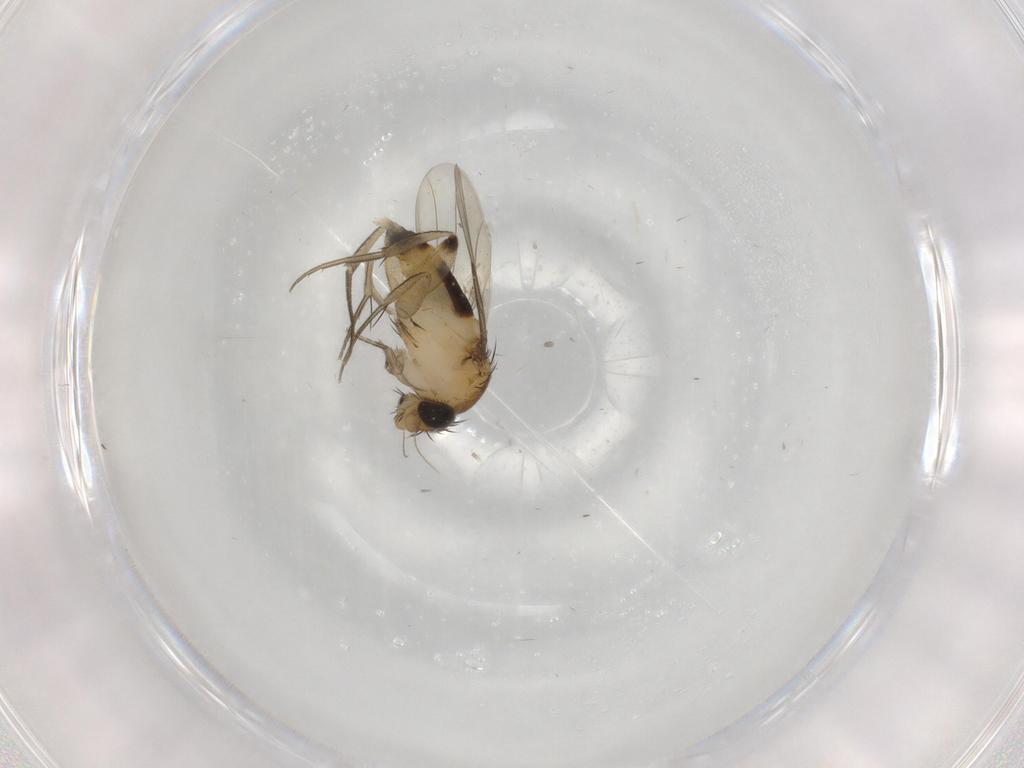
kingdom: Animalia
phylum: Arthropoda
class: Insecta
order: Diptera
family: Phoridae
